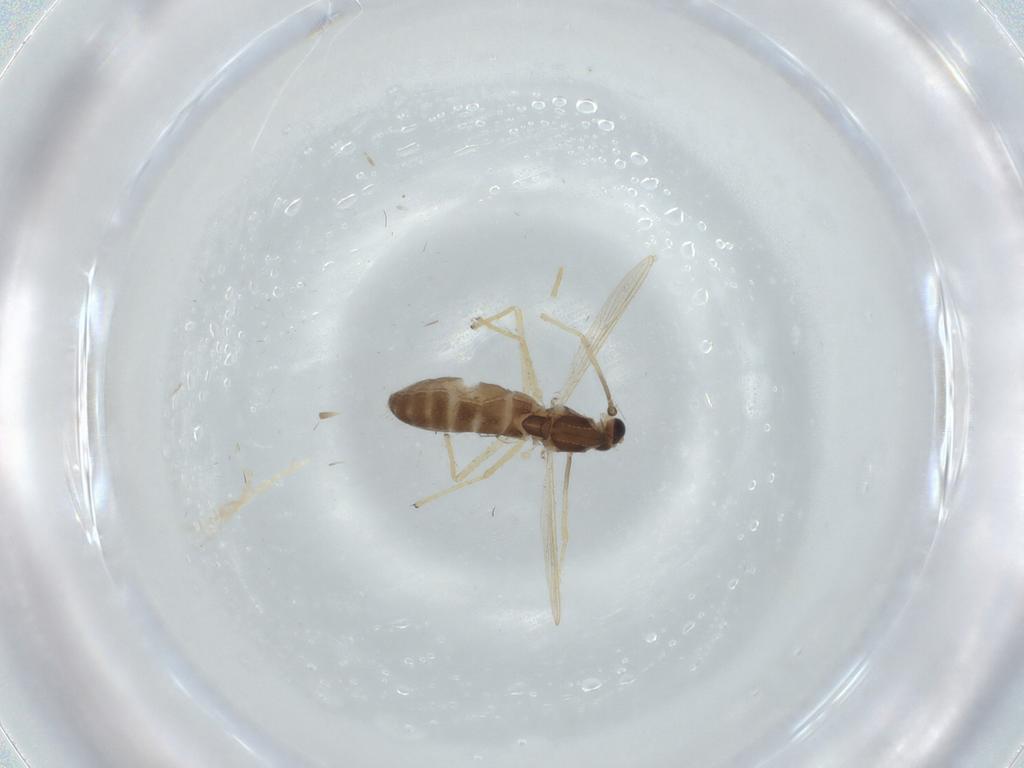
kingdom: Animalia
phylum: Arthropoda
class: Insecta
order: Diptera
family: Chironomidae
